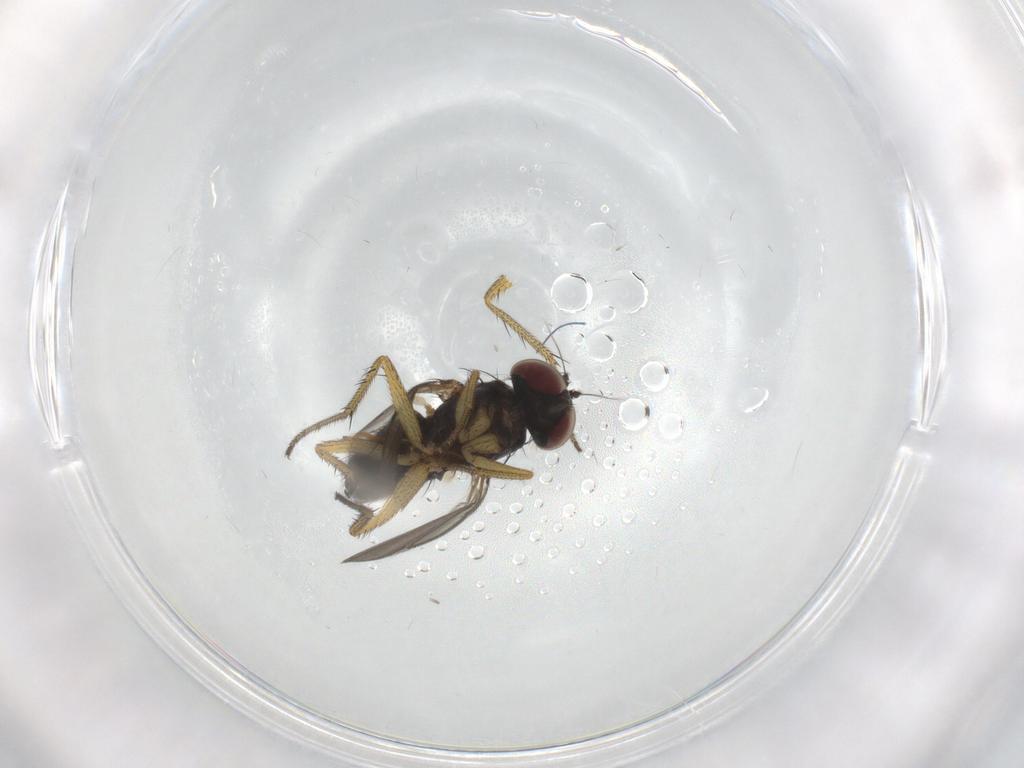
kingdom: Animalia
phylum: Arthropoda
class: Insecta
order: Diptera
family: Dolichopodidae
